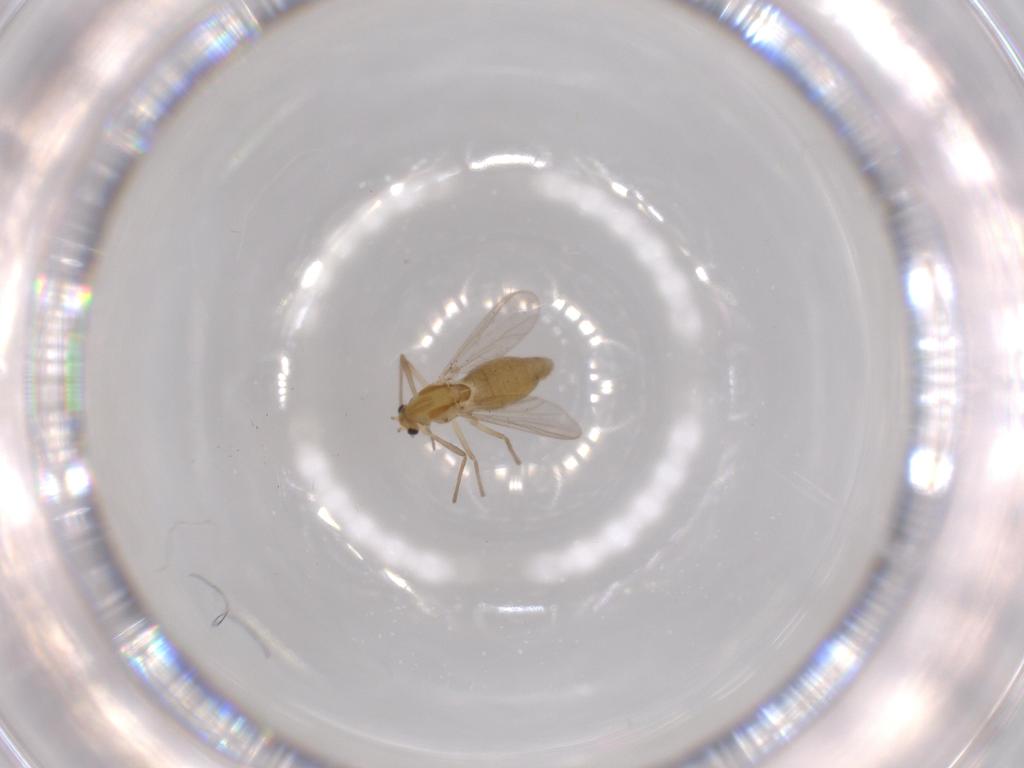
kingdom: Animalia
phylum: Arthropoda
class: Insecta
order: Diptera
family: Chironomidae
